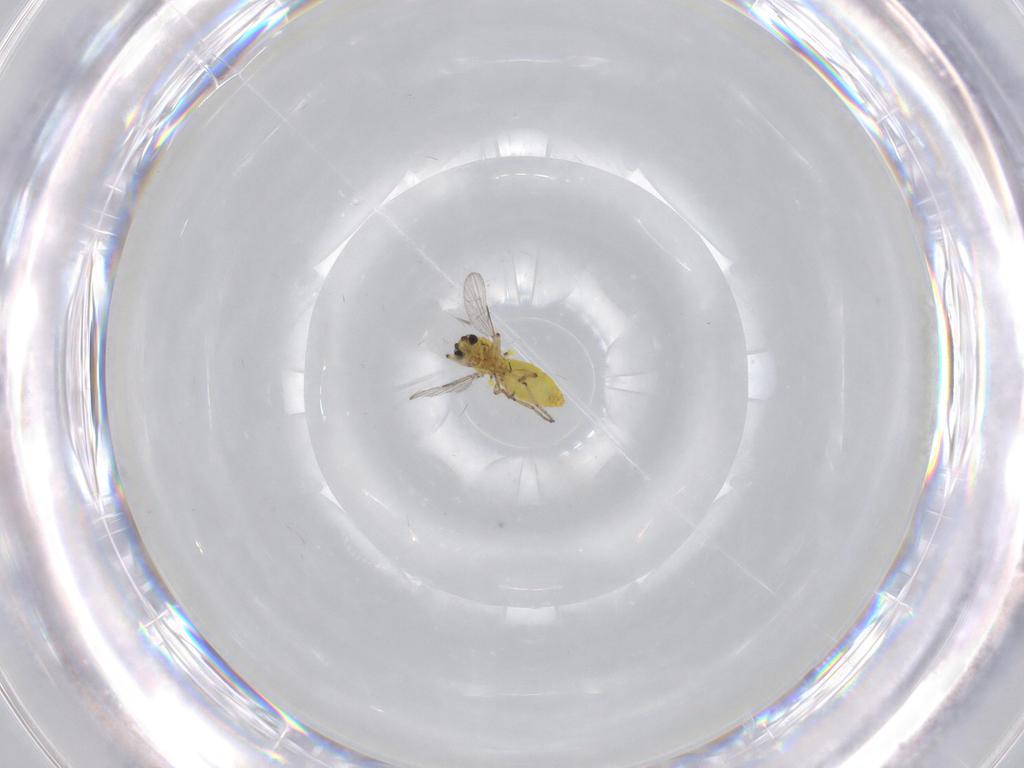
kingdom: Animalia
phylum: Arthropoda
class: Insecta
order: Diptera
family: Ceratopogonidae
